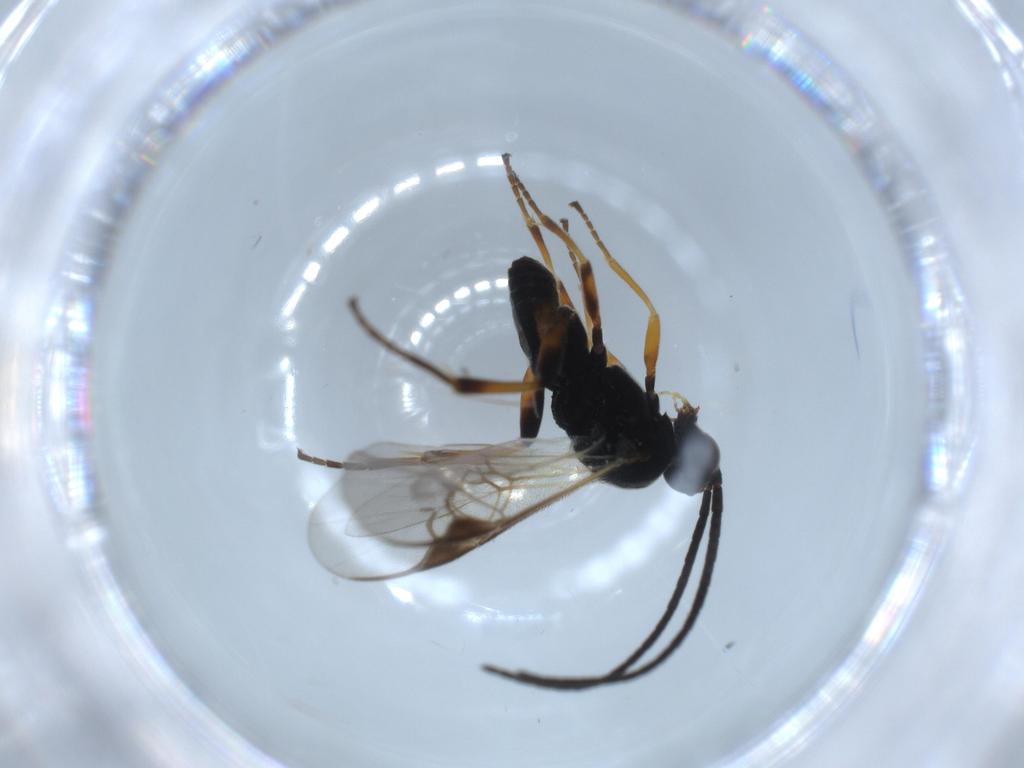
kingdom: Animalia
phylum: Arthropoda
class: Insecta
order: Hymenoptera
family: Braconidae
